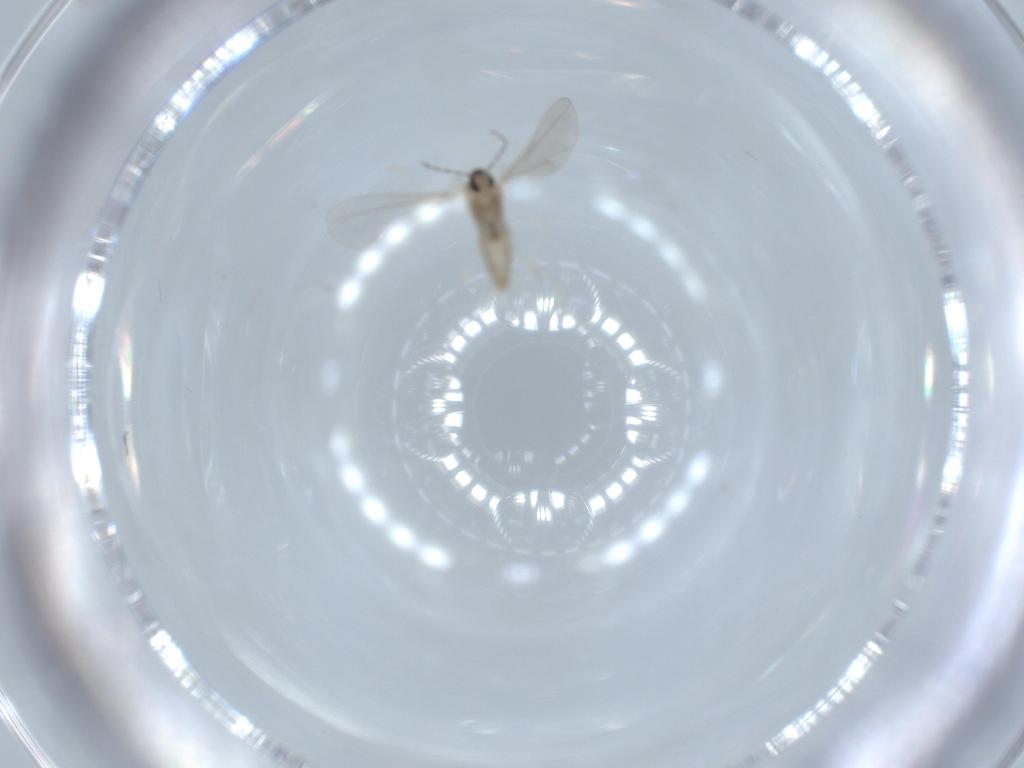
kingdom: Animalia
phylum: Arthropoda
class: Insecta
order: Diptera
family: Cecidomyiidae
